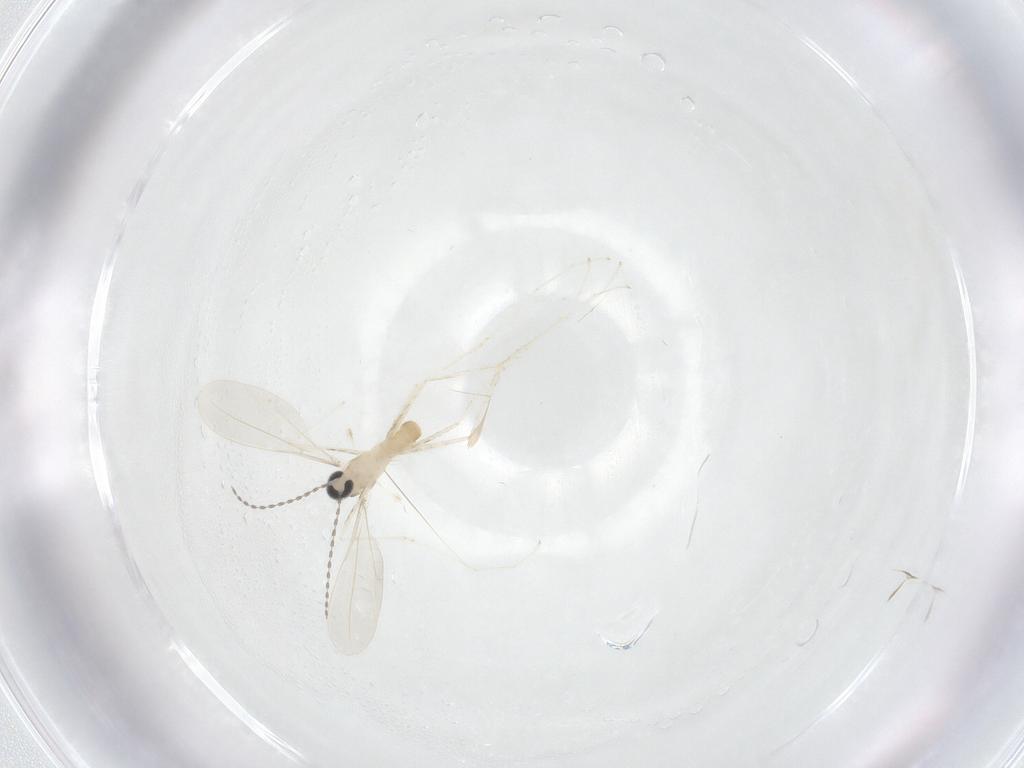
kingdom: Animalia
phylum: Arthropoda
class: Insecta
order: Diptera
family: Cecidomyiidae
